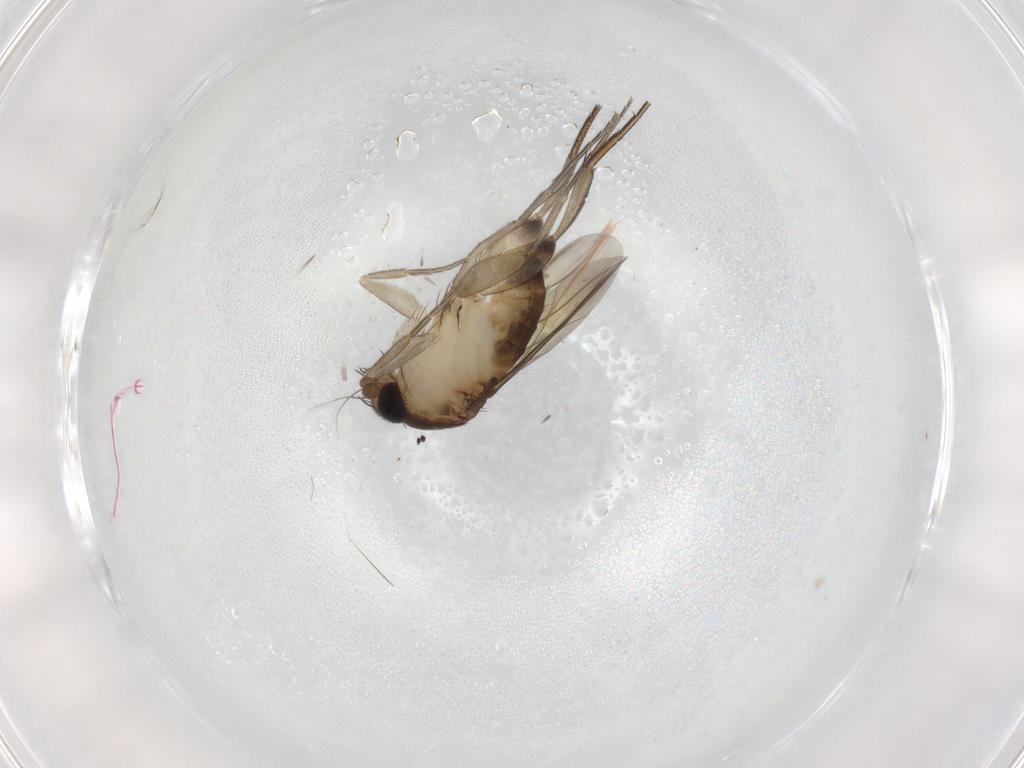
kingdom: Animalia
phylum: Arthropoda
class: Insecta
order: Diptera
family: Phoridae
